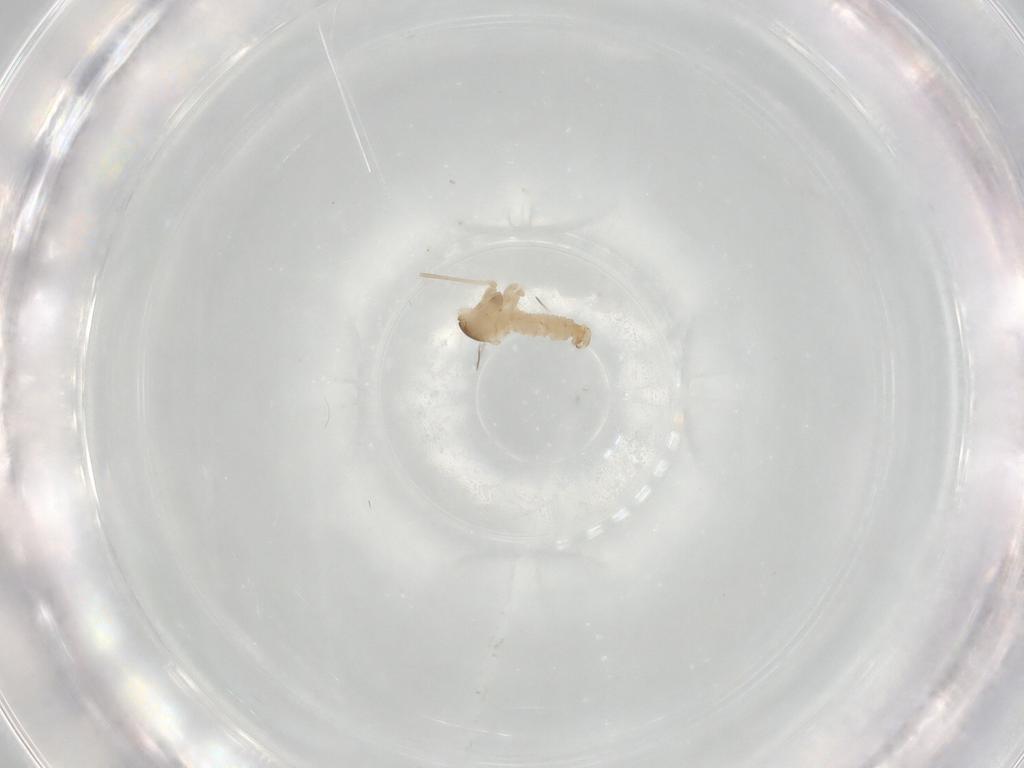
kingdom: Animalia
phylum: Arthropoda
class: Insecta
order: Diptera
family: Cecidomyiidae
